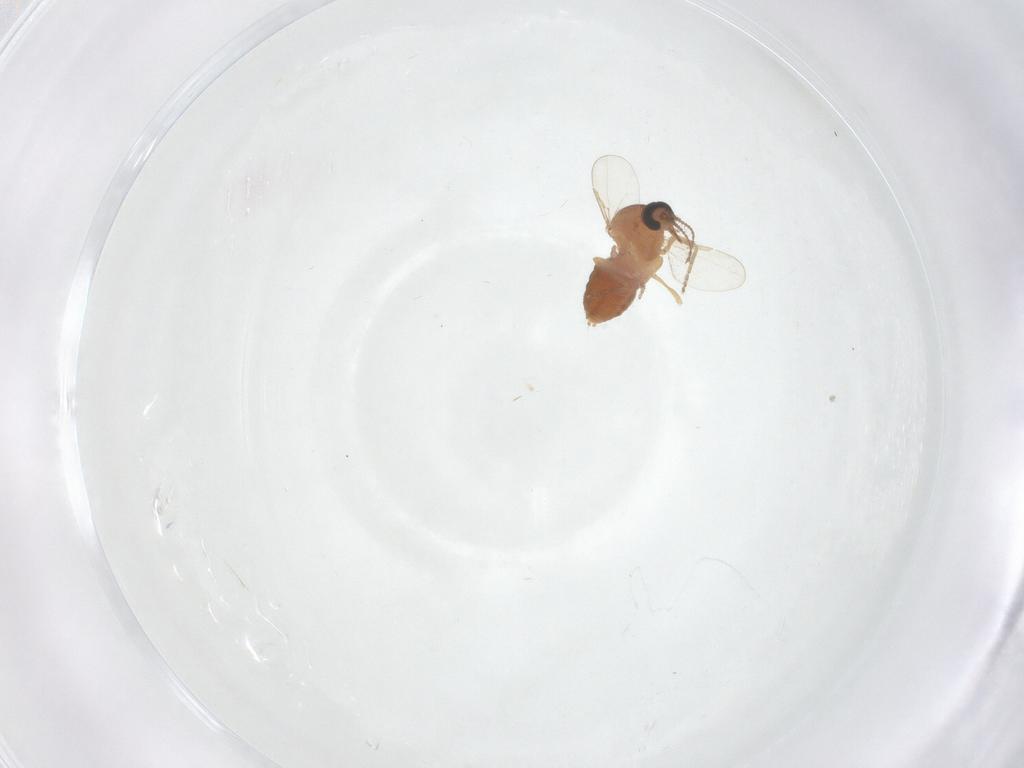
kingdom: Animalia
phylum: Arthropoda
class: Insecta
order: Diptera
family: Ceratopogonidae
